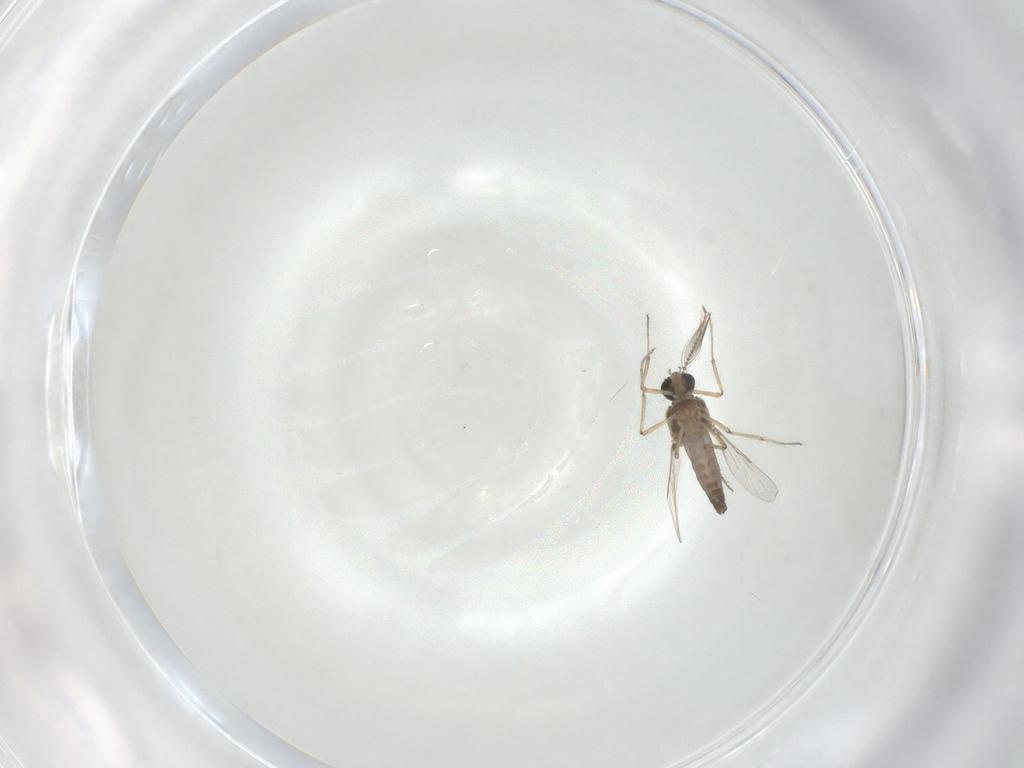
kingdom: Animalia
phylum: Arthropoda
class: Insecta
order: Diptera
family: Ceratopogonidae
